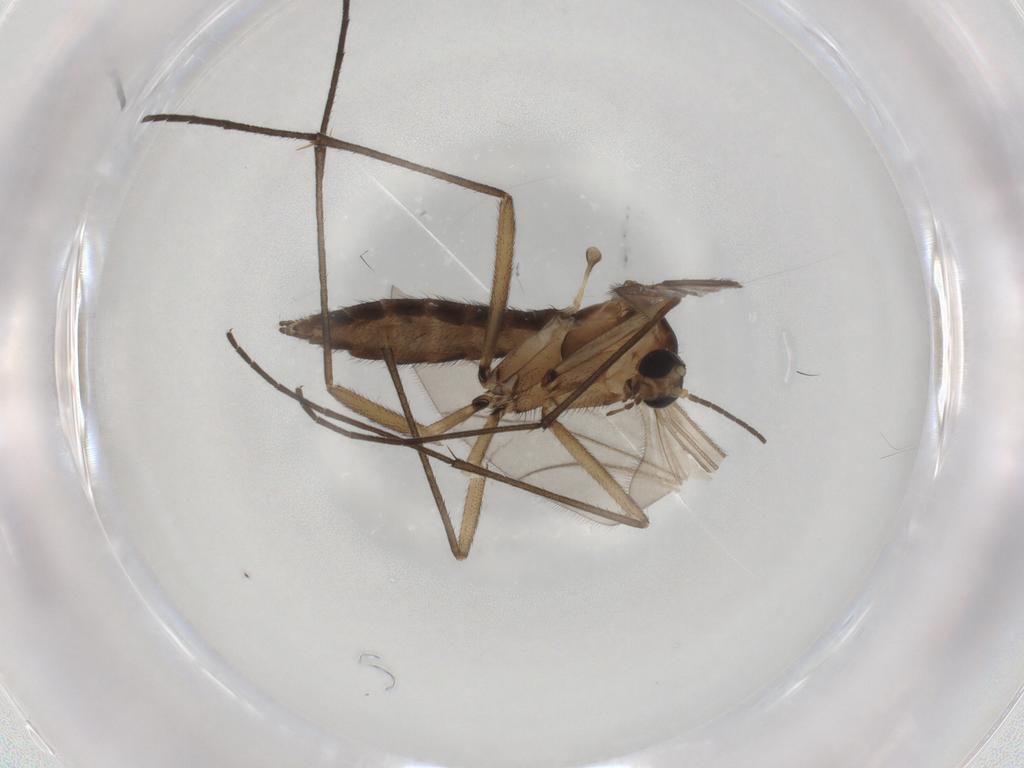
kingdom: Animalia
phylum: Arthropoda
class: Insecta
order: Diptera
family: Sciaridae
